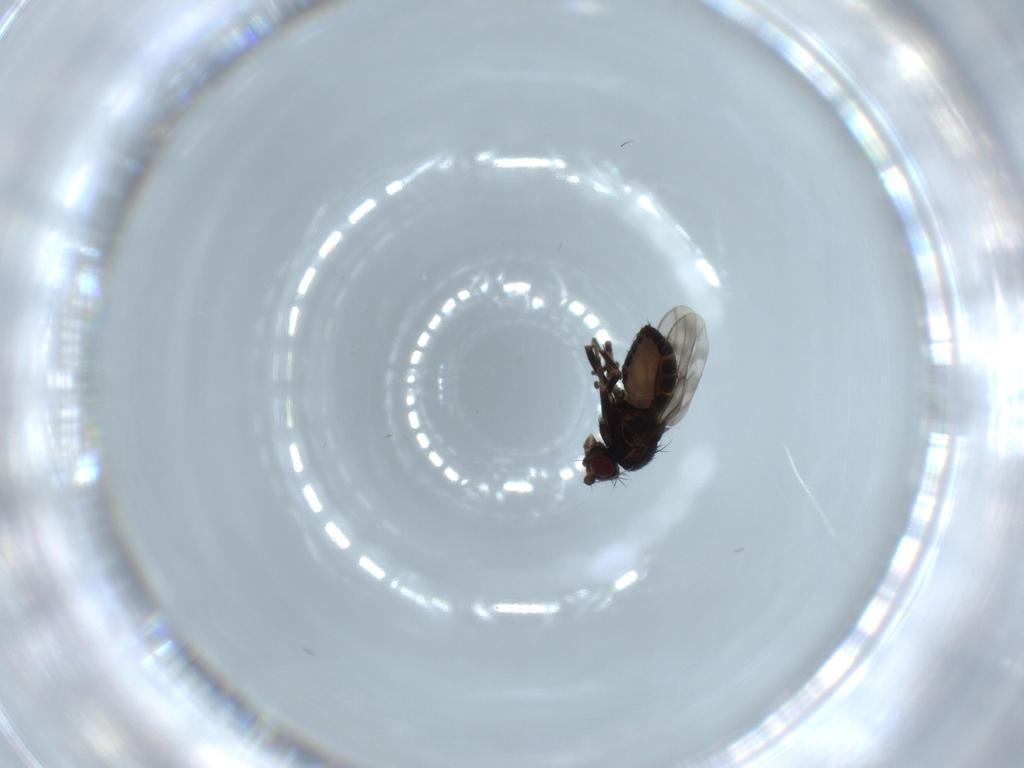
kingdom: Animalia
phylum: Arthropoda
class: Insecta
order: Diptera
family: Sphaeroceridae
